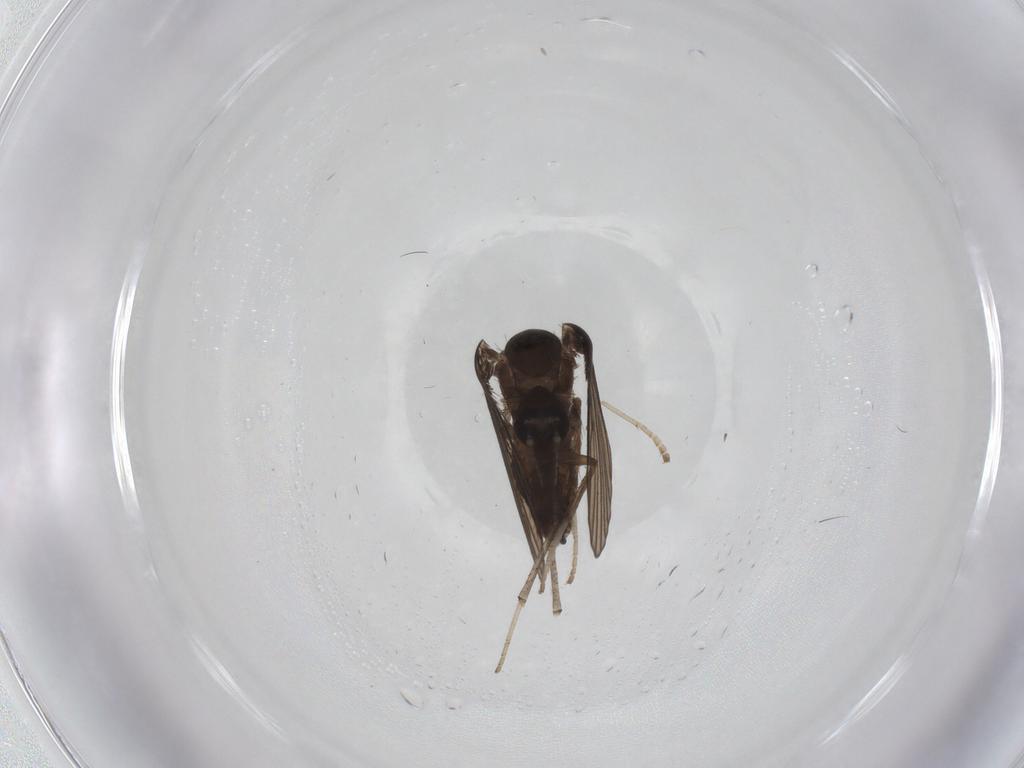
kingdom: Animalia
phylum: Arthropoda
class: Insecta
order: Diptera
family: Psychodidae
